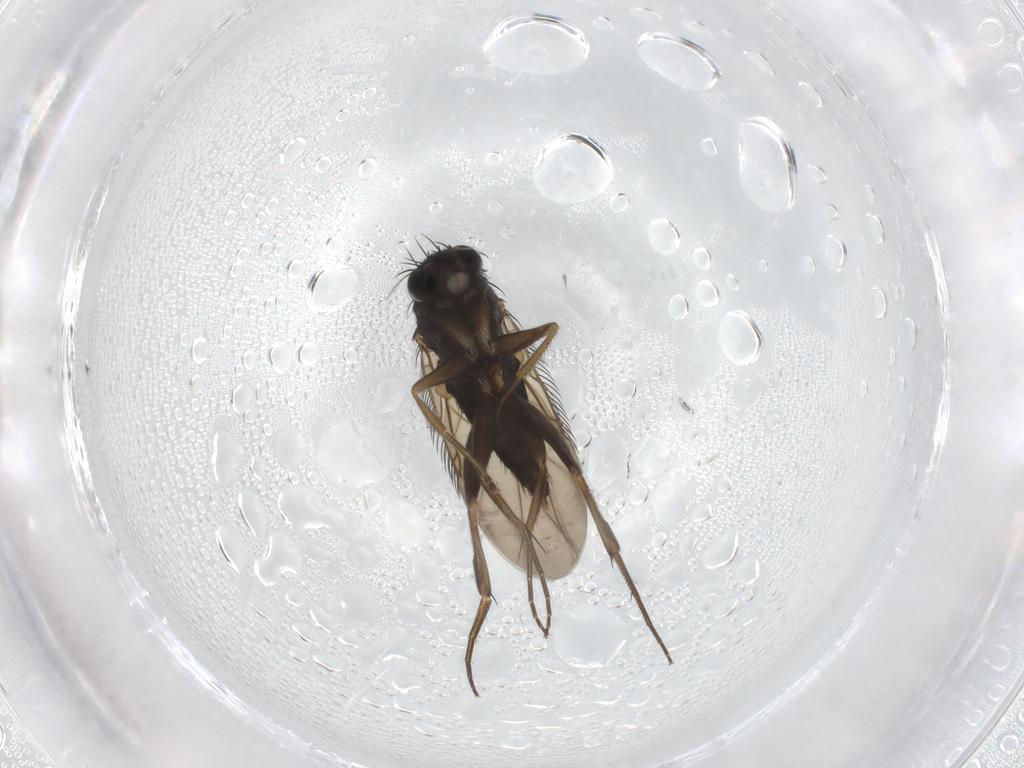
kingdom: Animalia
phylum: Arthropoda
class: Insecta
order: Diptera
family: Phoridae
